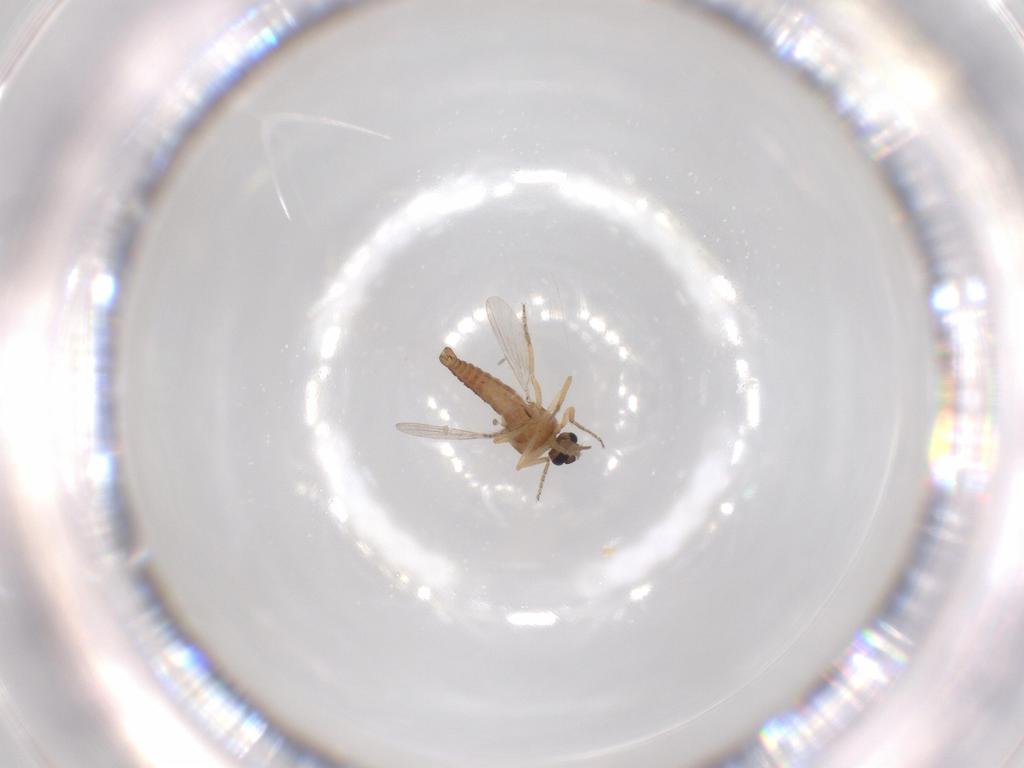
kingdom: Animalia
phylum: Arthropoda
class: Insecta
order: Diptera
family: Ceratopogonidae
